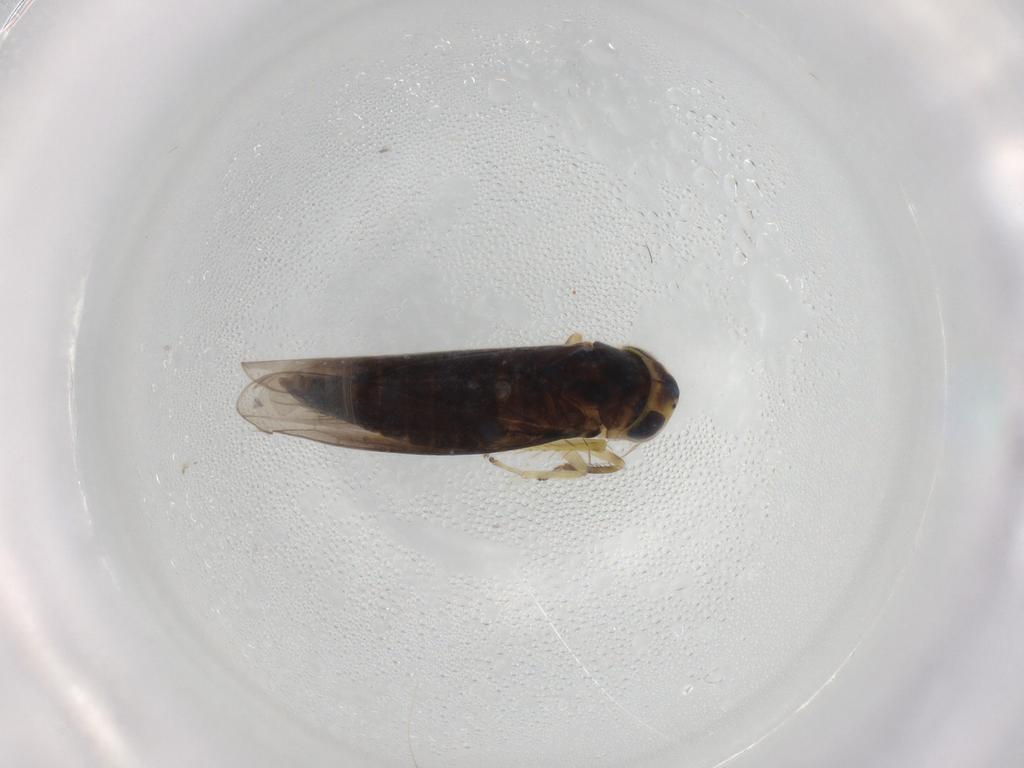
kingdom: Animalia
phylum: Arthropoda
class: Insecta
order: Hemiptera
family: Cicadellidae
